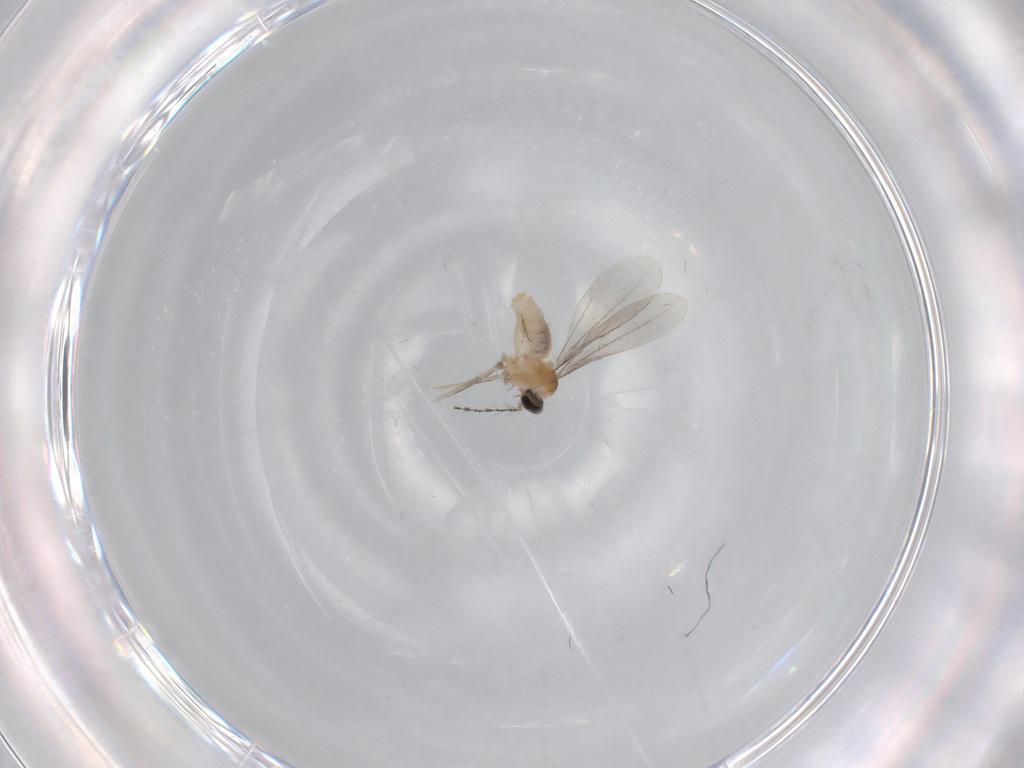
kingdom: Animalia
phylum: Arthropoda
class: Insecta
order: Diptera
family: Cecidomyiidae
